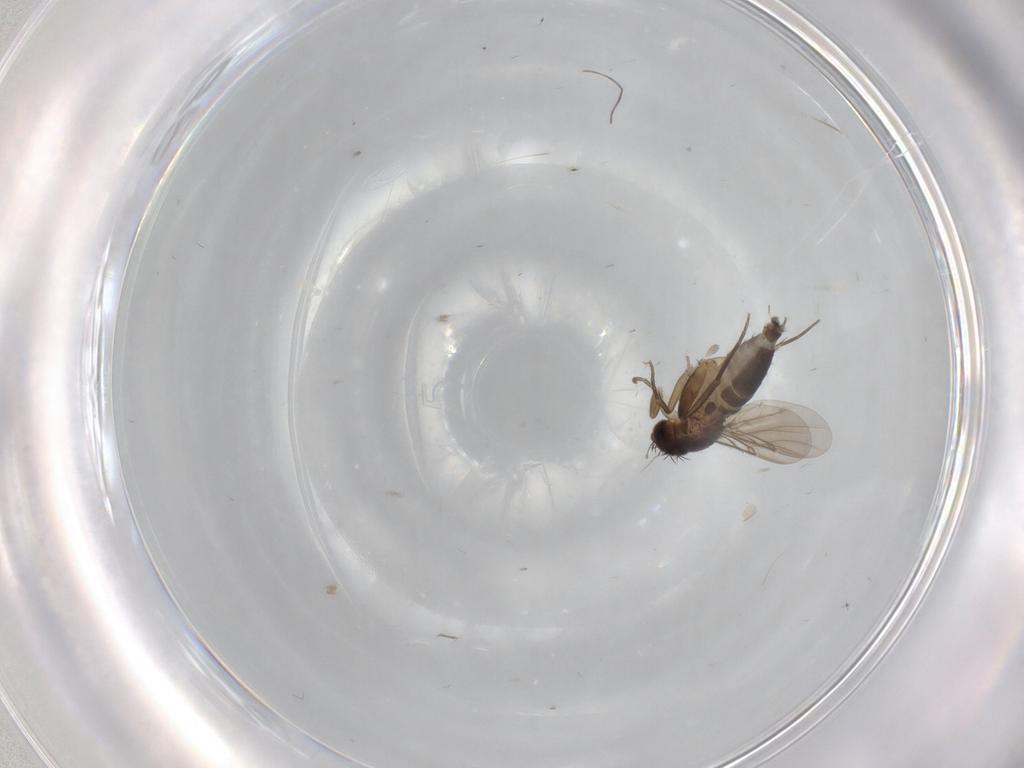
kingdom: Animalia
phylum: Arthropoda
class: Insecta
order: Diptera
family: Phoridae
